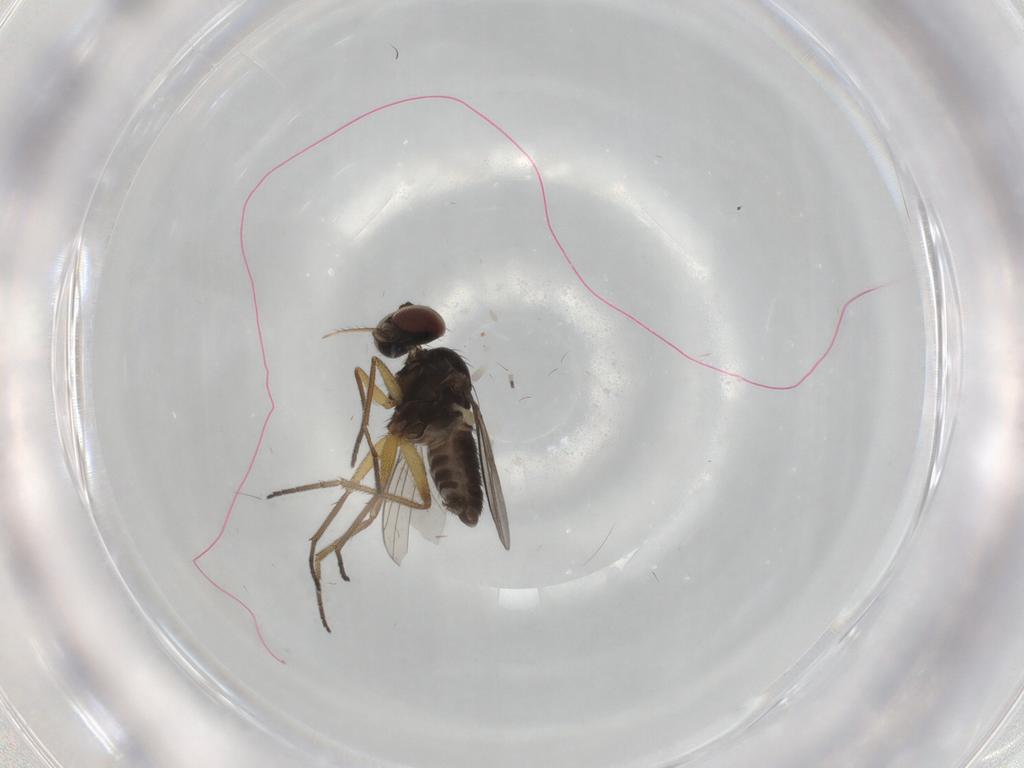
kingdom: Animalia
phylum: Arthropoda
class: Insecta
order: Diptera
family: Dolichopodidae
